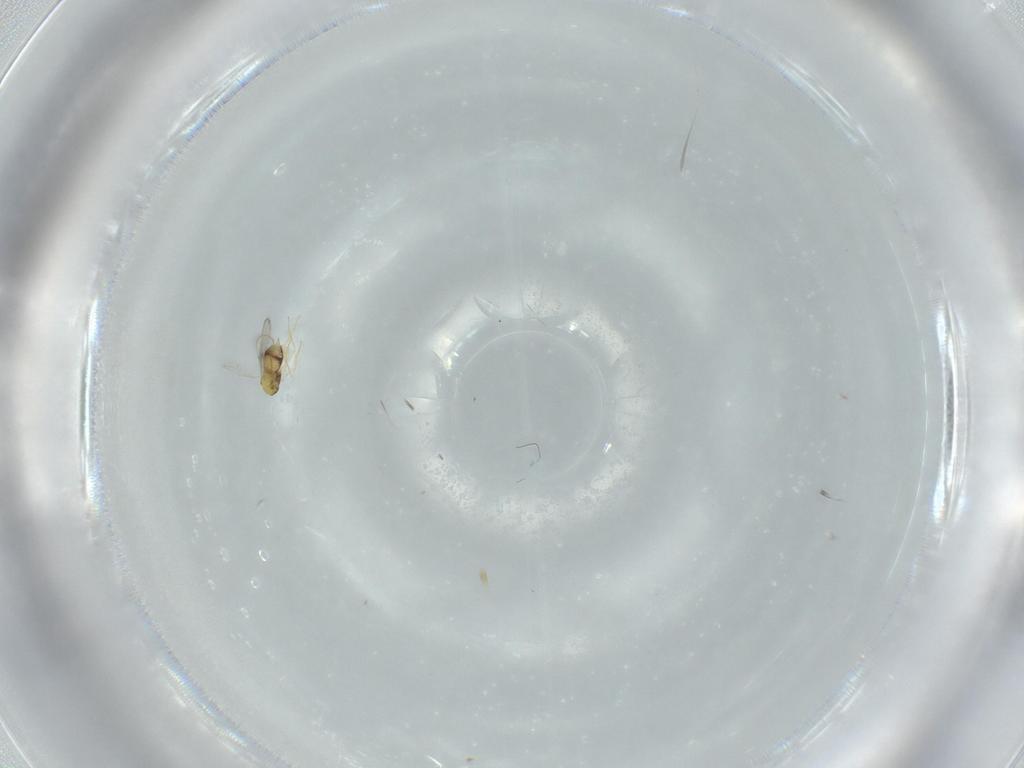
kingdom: Animalia
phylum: Arthropoda
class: Insecta
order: Hymenoptera
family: Aphelinidae
